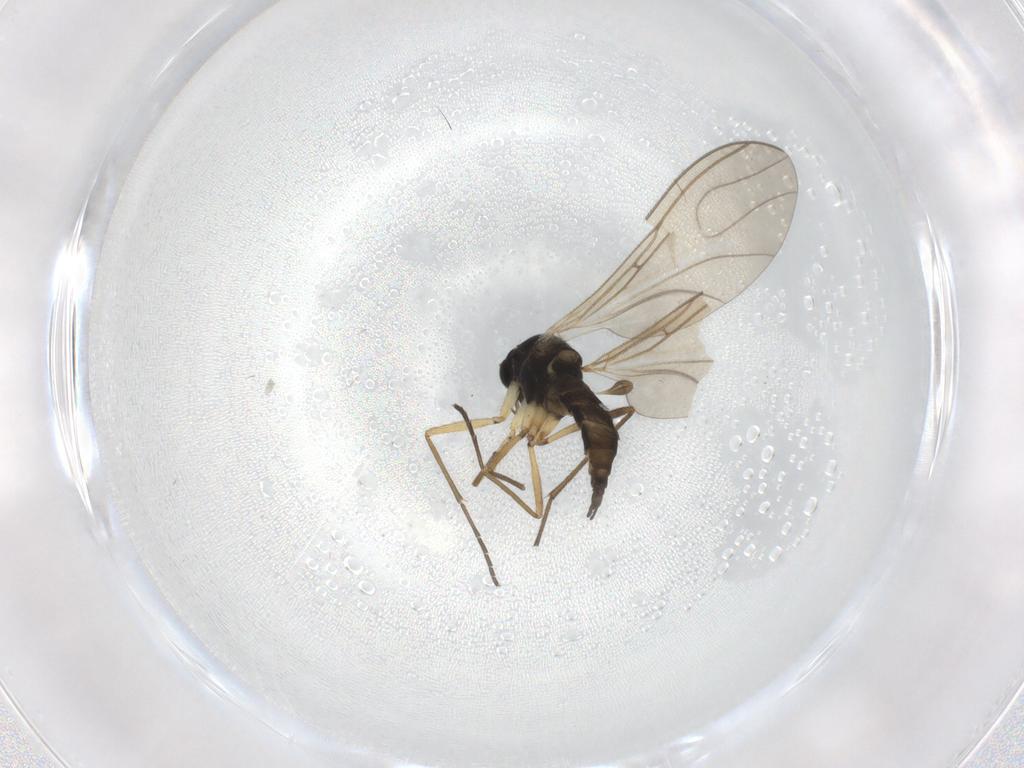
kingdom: Animalia
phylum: Arthropoda
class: Insecta
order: Diptera
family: Sciaridae
